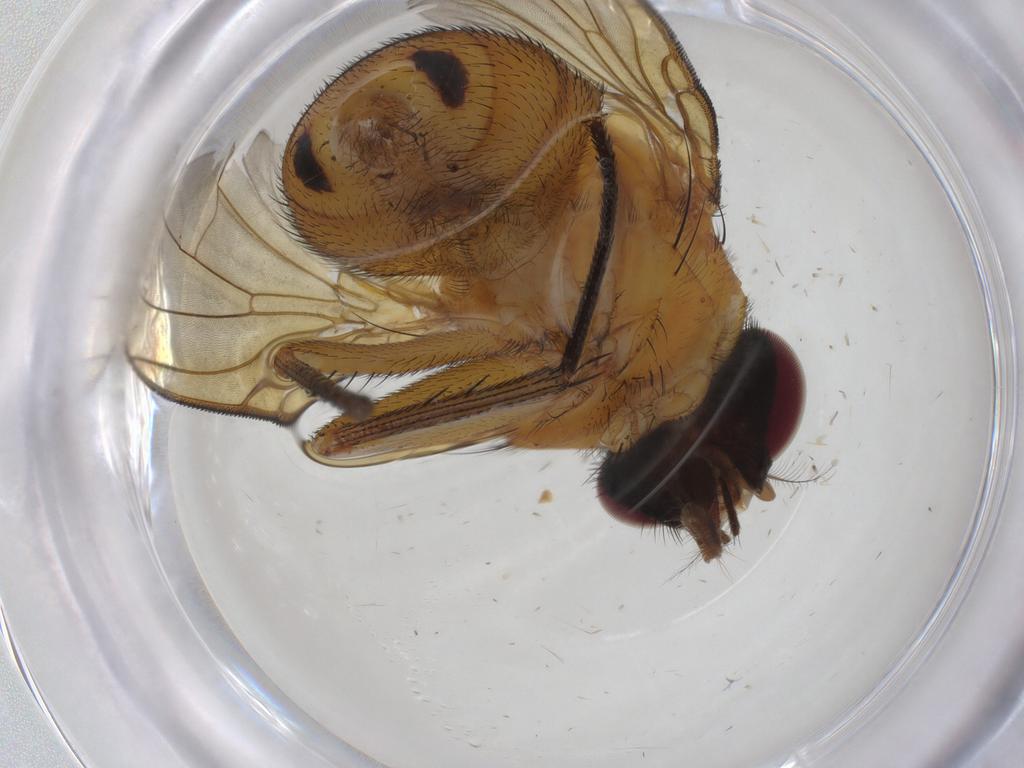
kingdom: Animalia
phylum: Arthropoda
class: Insecta
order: Diptera
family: Muscidae
